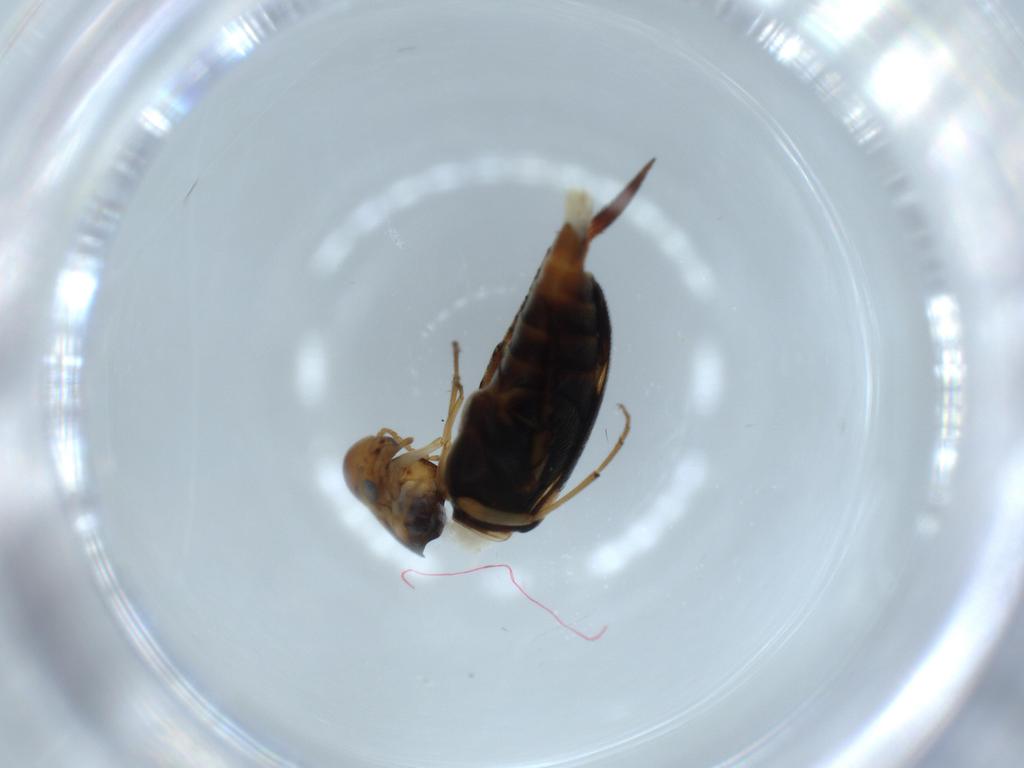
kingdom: Animalia
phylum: Arthropoda
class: Insecta
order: Coleoptera
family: Mordellidae
